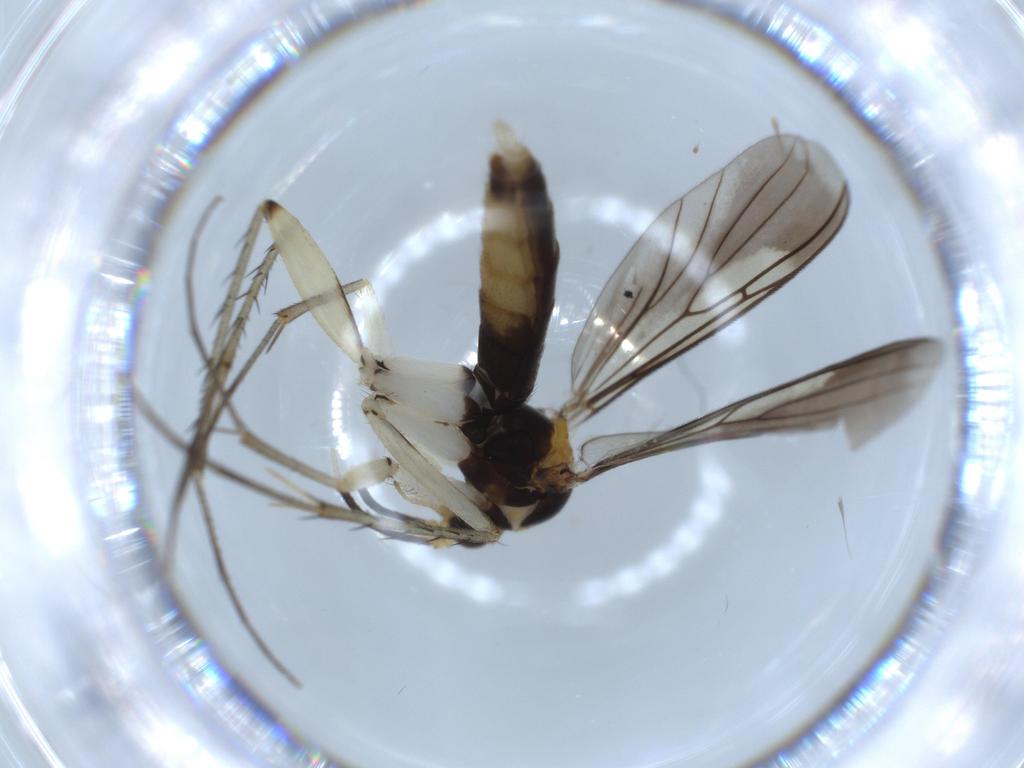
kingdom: Animalia
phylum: Arthropoda
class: Insecta
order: Diptera
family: Mycetophilidae
